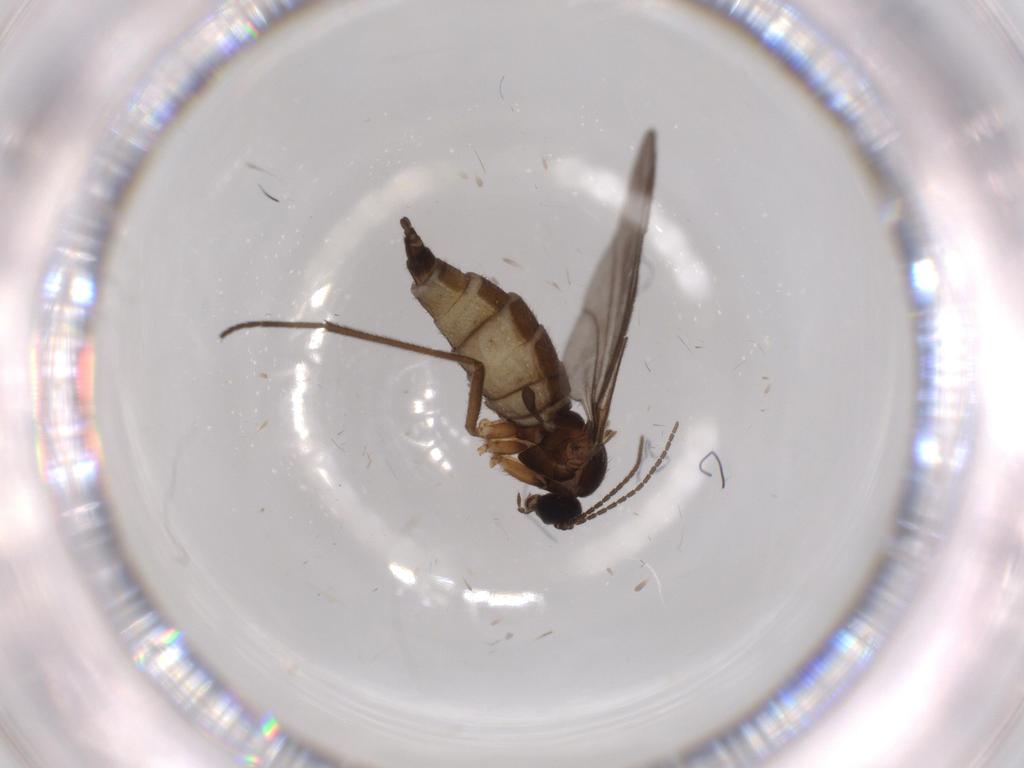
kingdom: Animalia
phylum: Arthropoda
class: Insecta
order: Diptera
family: Sciaridae
